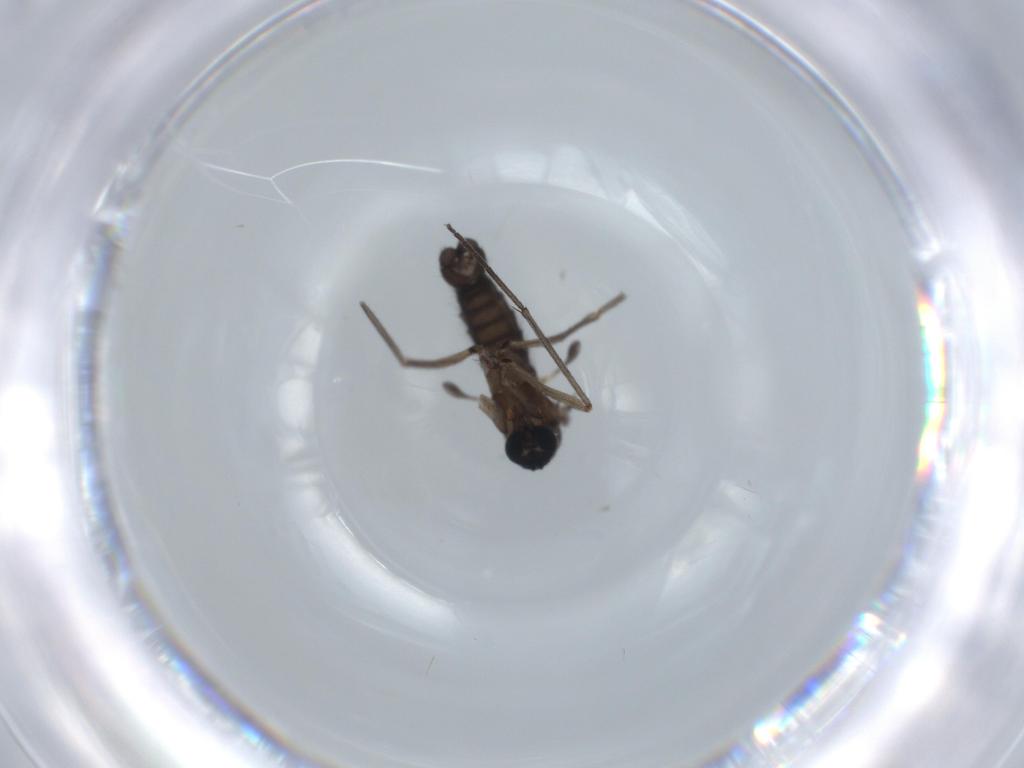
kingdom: Animalia
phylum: Arthropoda
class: Insecta
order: Diptera
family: Sciaridae
